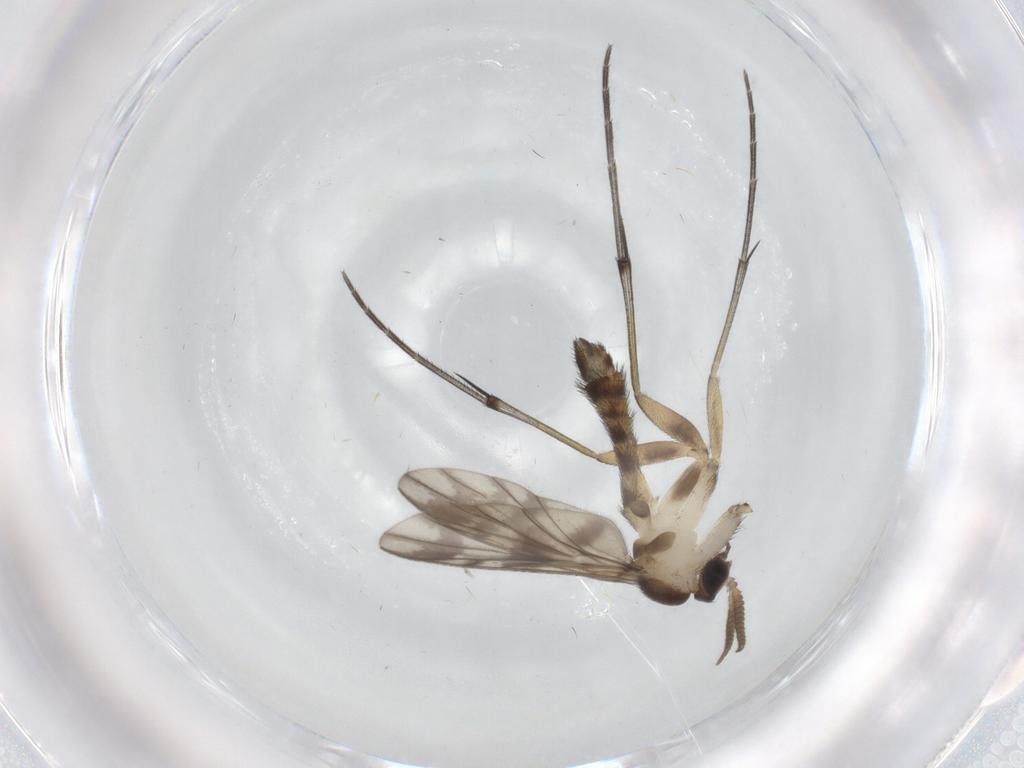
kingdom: Animalia
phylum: Arthropoda
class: Insecta
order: Diptera
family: Keroplatidae
